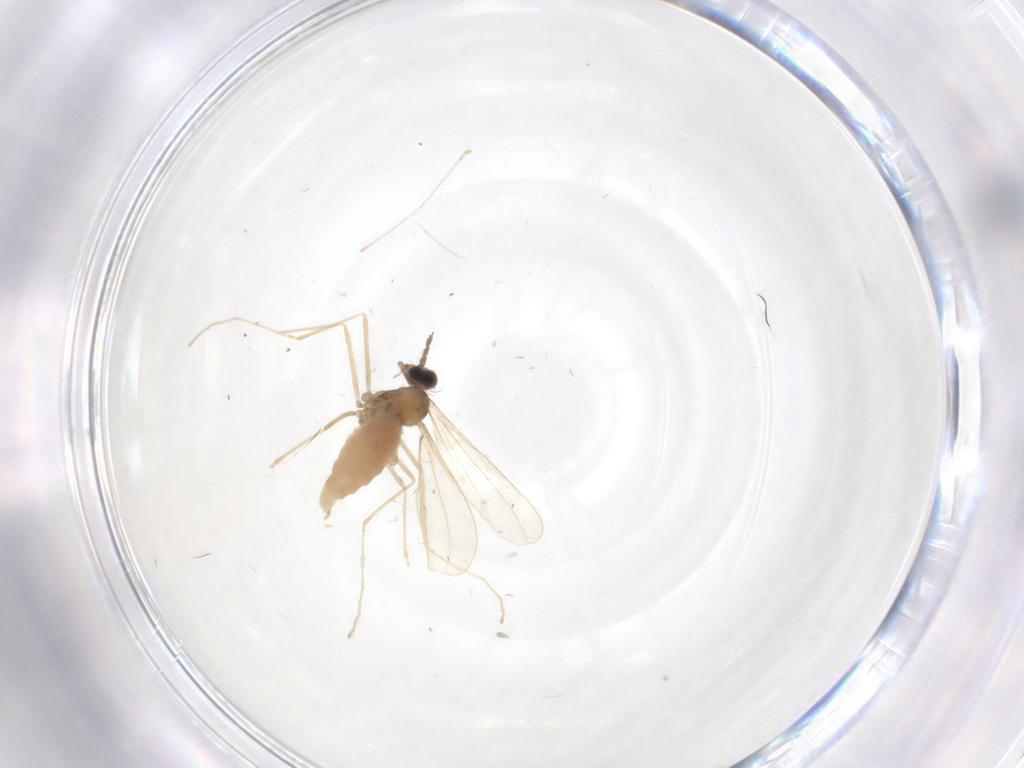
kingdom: Animalia
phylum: Arthropoda
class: Insecta
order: Diptera
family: Cecidomyiidae
